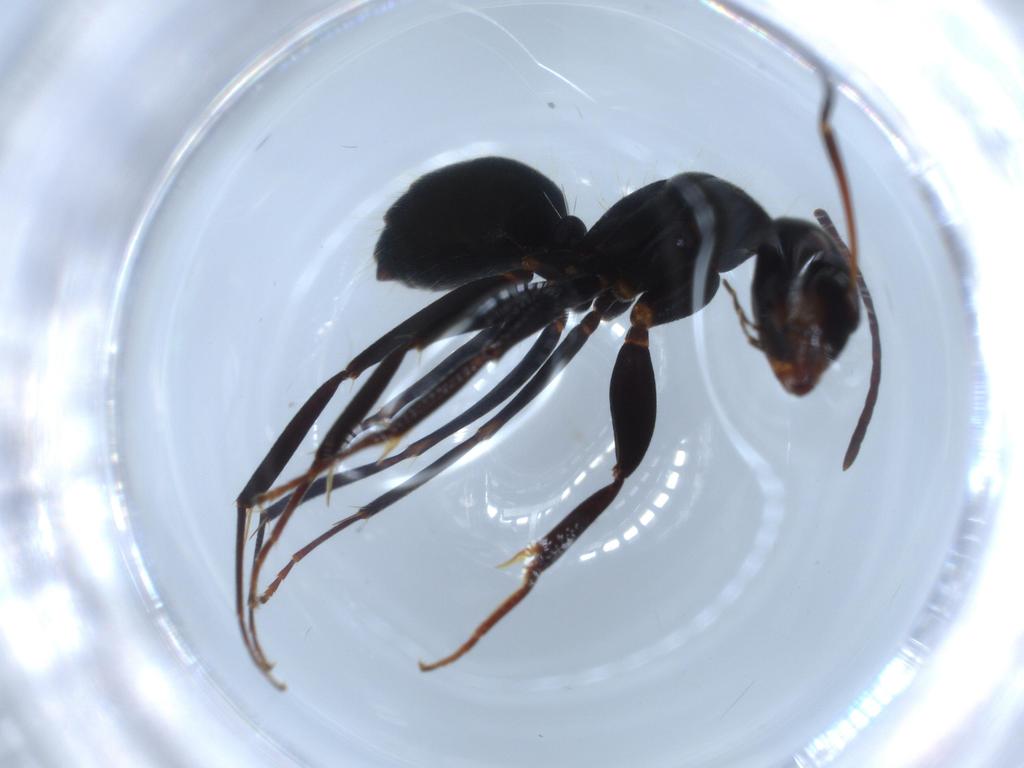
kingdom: Animalia
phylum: Arthropoda
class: Insecta
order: Hymenoptera
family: Formicidae
